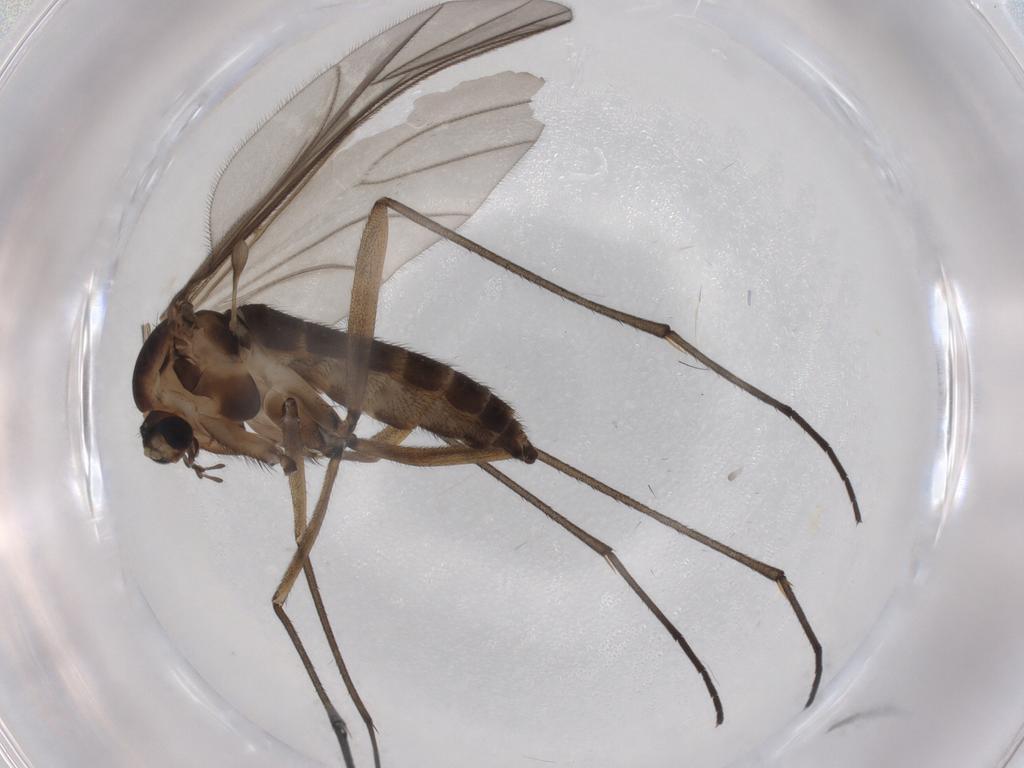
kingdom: Animalia
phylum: Arthropoda
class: Insecta
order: Diptera
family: Sciaridae
